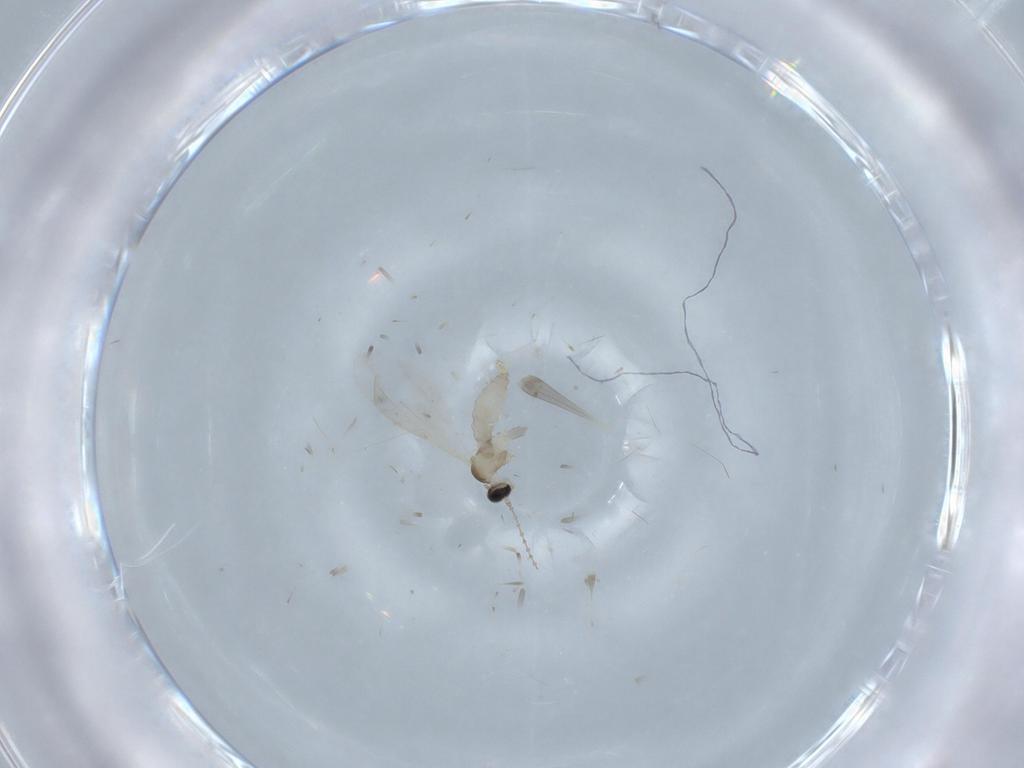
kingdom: Animalia
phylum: Arthropoda
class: Insecta
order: Diptera
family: Cecidomyiidae
